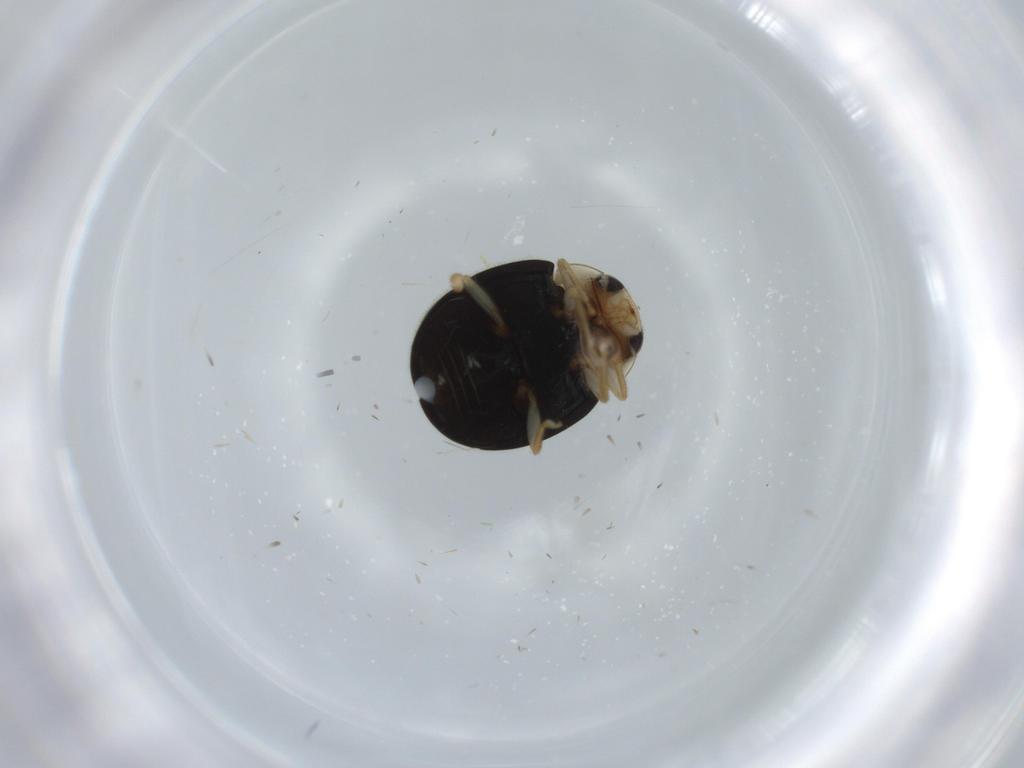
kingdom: Animalia
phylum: Arthropoda
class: Insecta
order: Coleoptera
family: Coccinellidae
